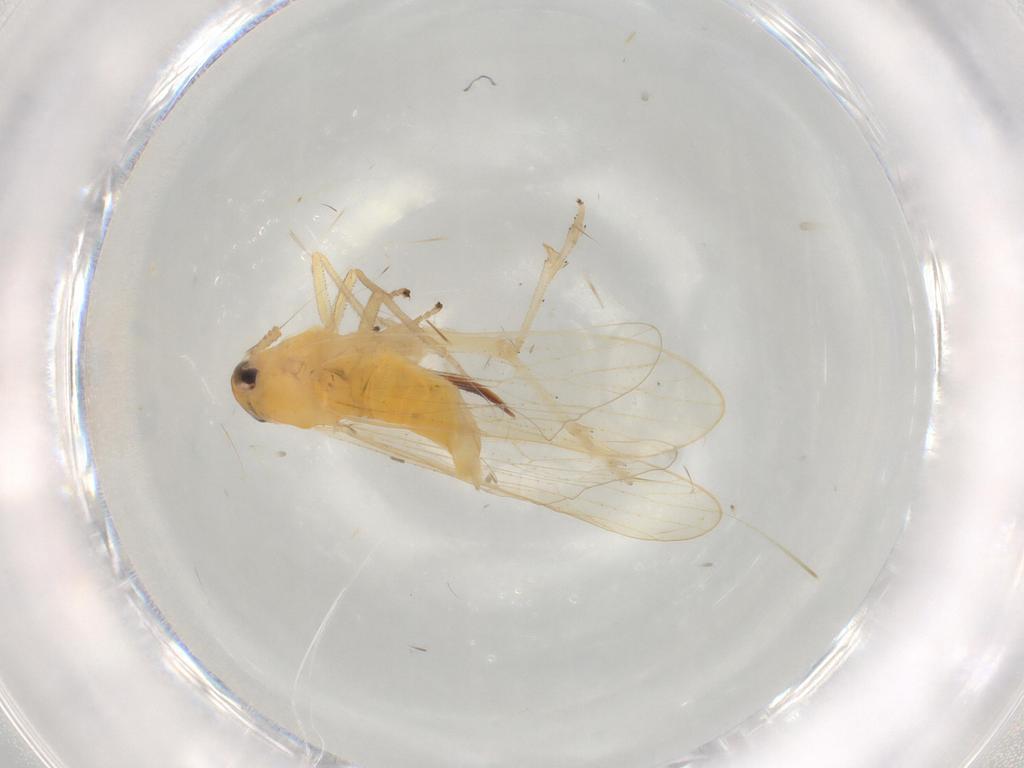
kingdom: Animalia
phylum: Arthropoda
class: Insecta
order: Hemiptera
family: Delphacidae
